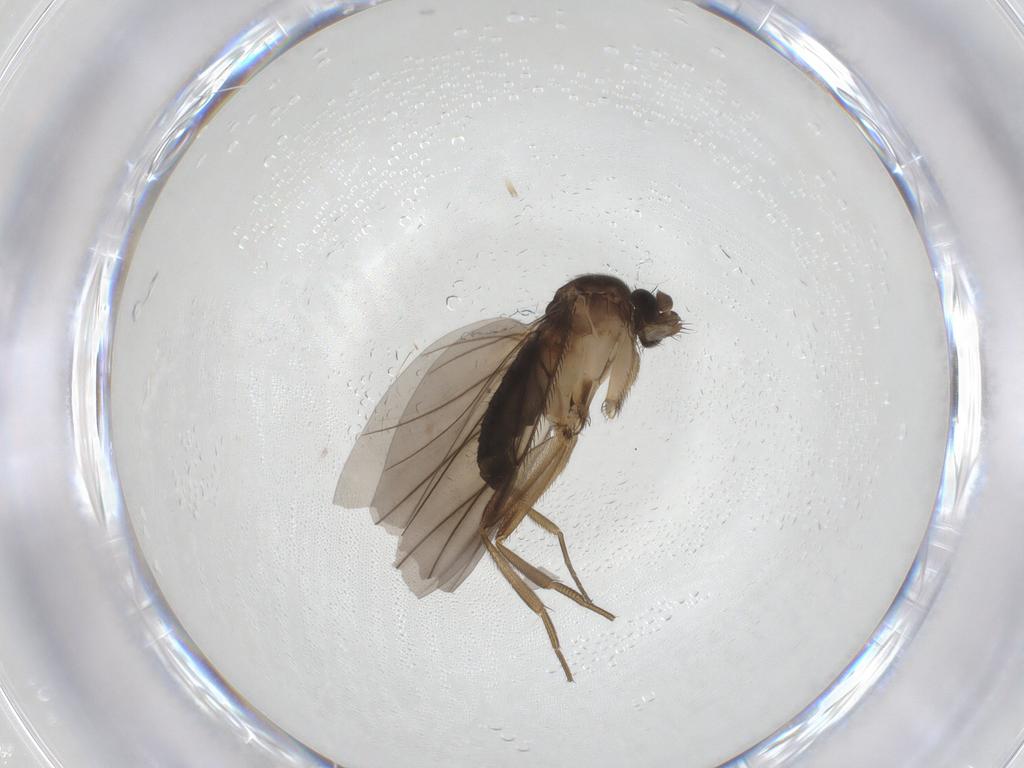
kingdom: Animalia
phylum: Arthropoda
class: Insecta
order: Diptera
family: Phoridae
